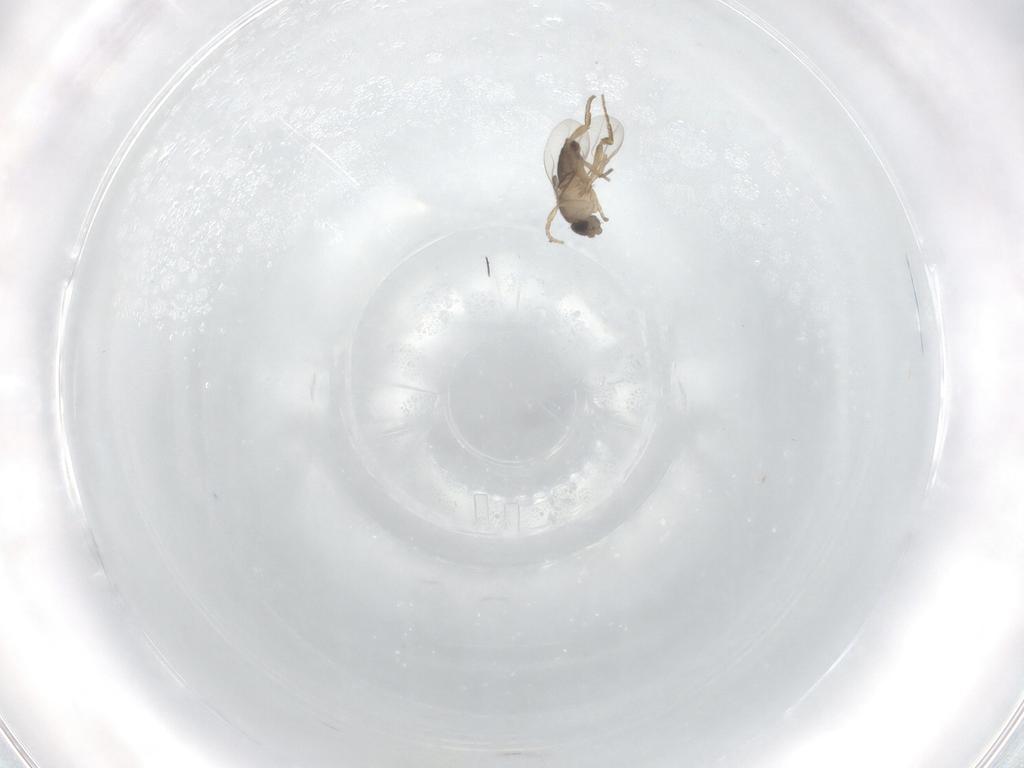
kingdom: Animalia
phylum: Arthropoda
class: Insecta
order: Diptera
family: Phoridae
